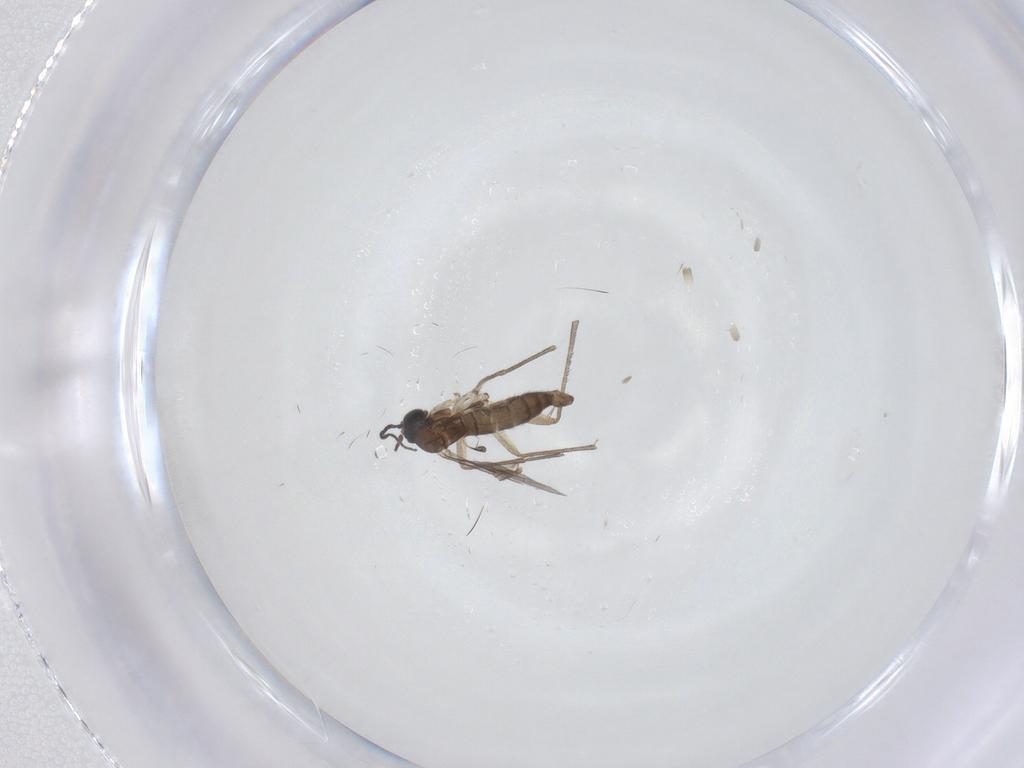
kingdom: Animalia
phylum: Arthropoda
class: Insecta
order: Diptera
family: Sciaridae
